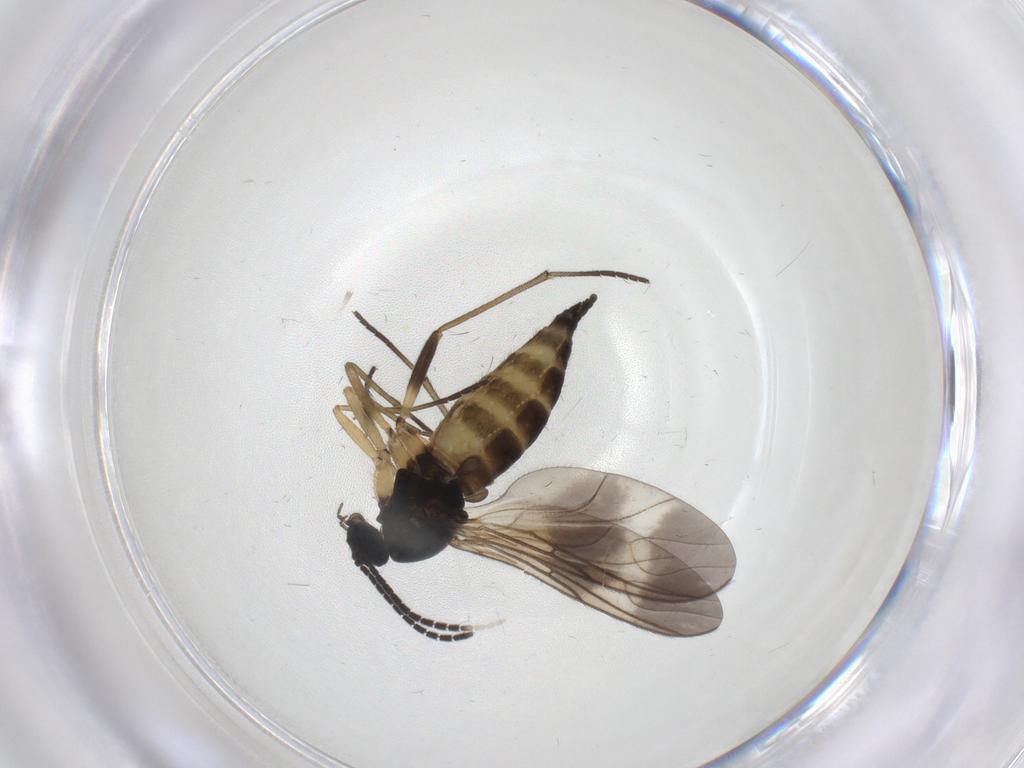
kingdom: Animalia
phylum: Arthropoda
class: Insecta
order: Diptera
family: Sciaridae
